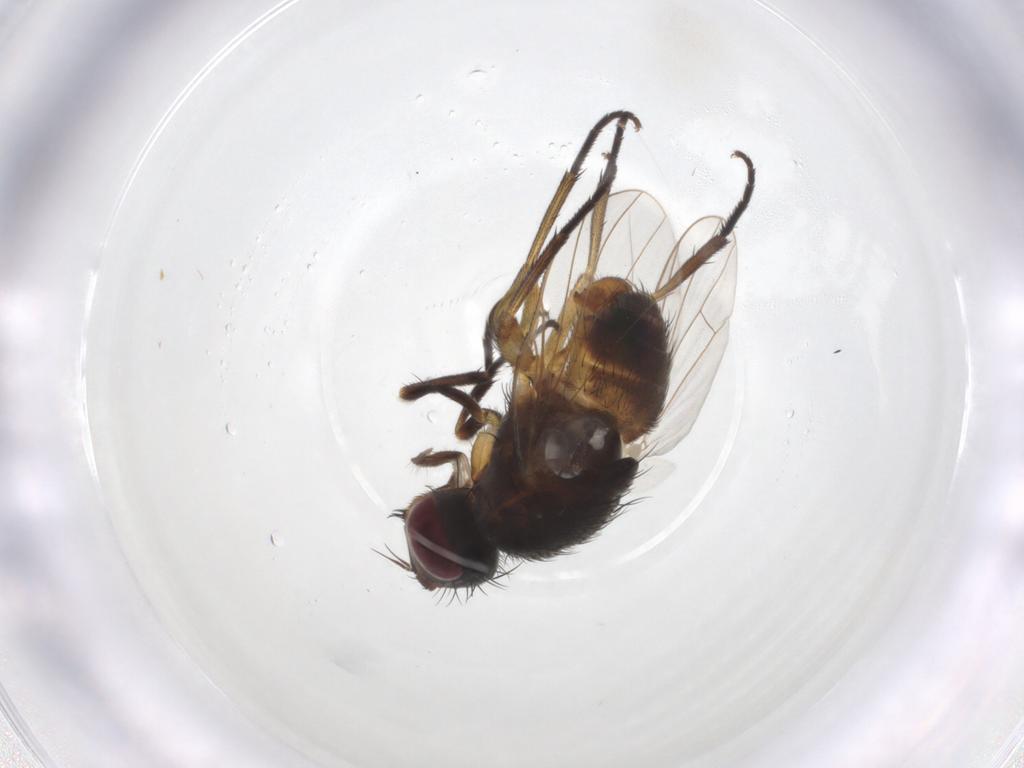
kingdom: Animalia
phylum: Arthropoda
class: Insecta
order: Diptera
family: Muscidae
